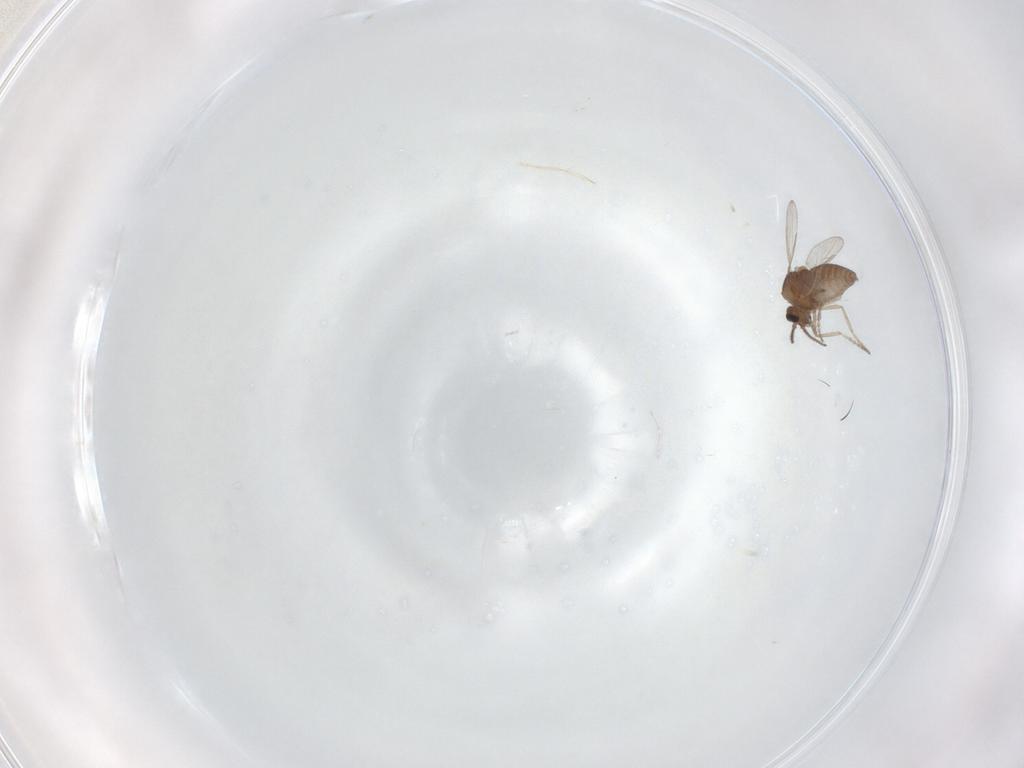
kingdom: Animalia
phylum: Arthropoda
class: Insecta
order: Diptera
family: Ceratopogonidae
